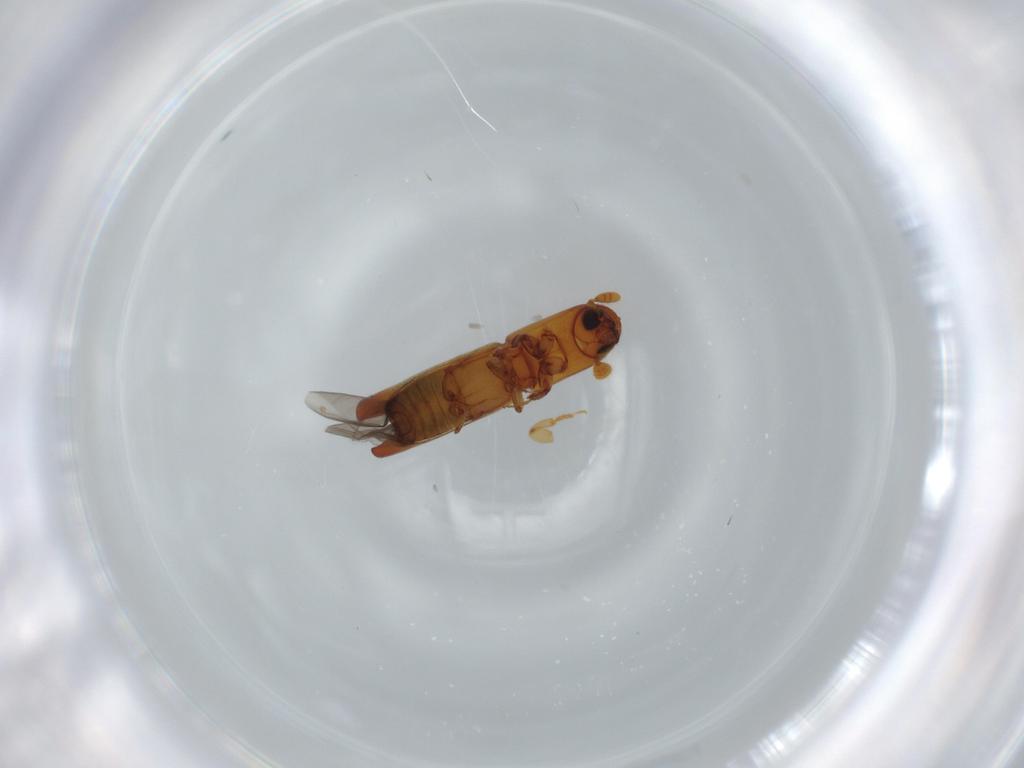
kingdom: Animalia
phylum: Arthropoda
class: Insecta
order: Coleoptera
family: Curculionidae
